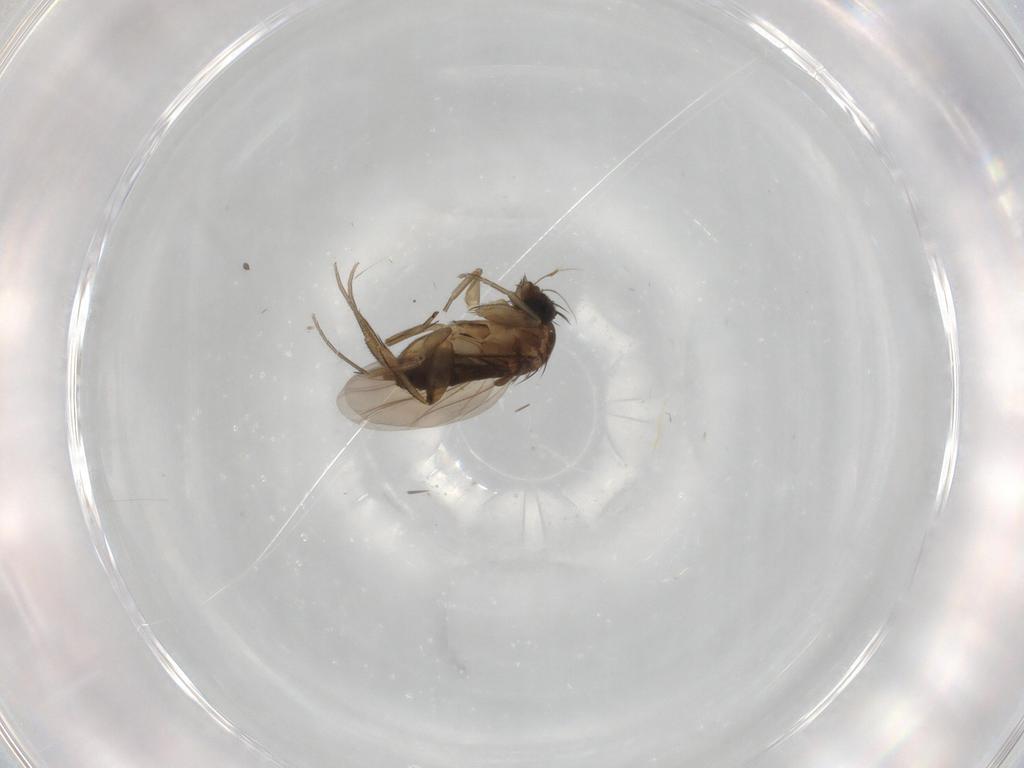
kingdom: Animalia
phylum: Arthropoda
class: Insecta
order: Diptera
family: Phoridae
